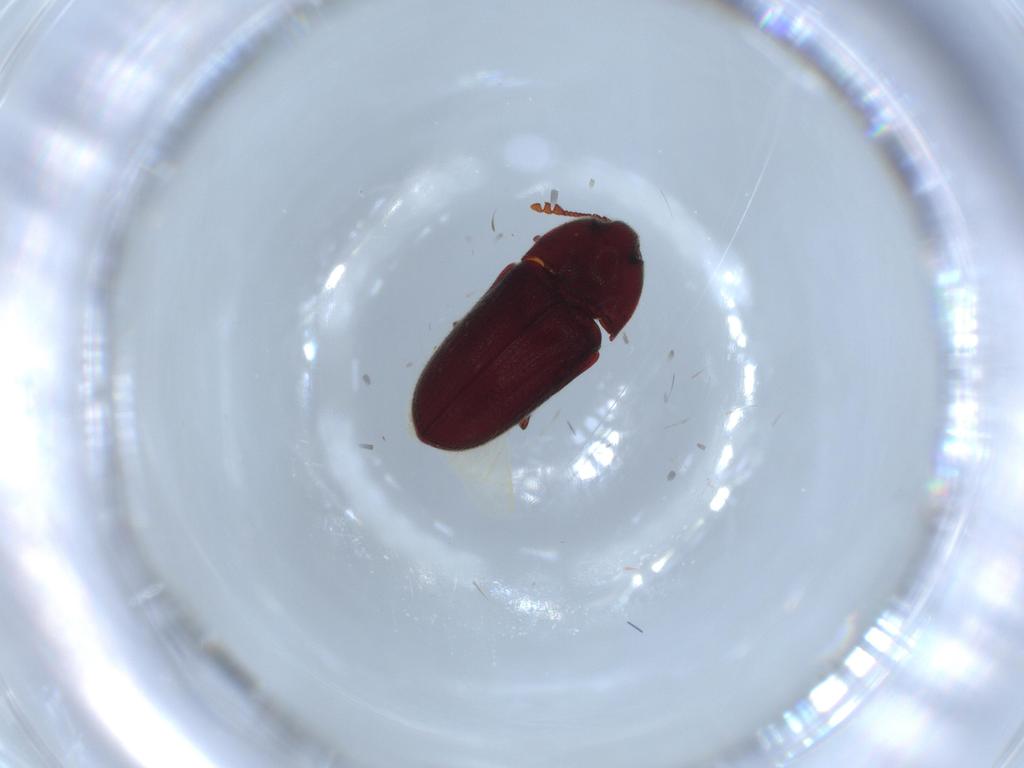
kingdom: Animalia
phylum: Arthropoda
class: Insecta
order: Coleoptera
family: Throscidae
